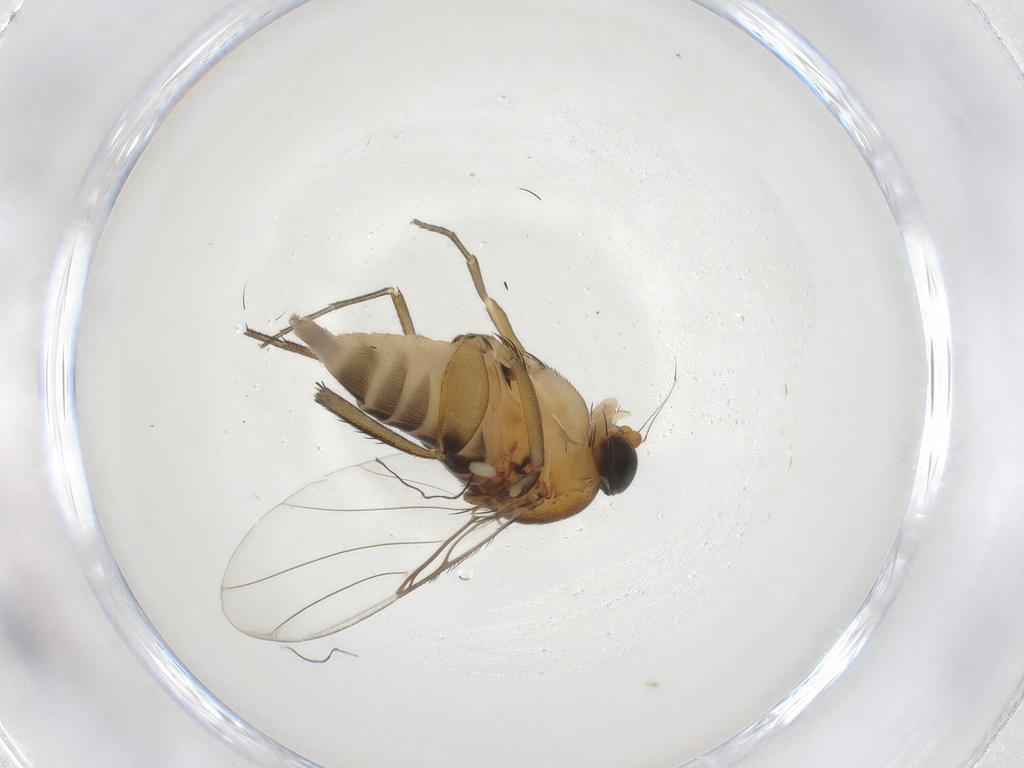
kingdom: Animalia
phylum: Arthropoda
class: Insecta
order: Diptera
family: Phoridae
